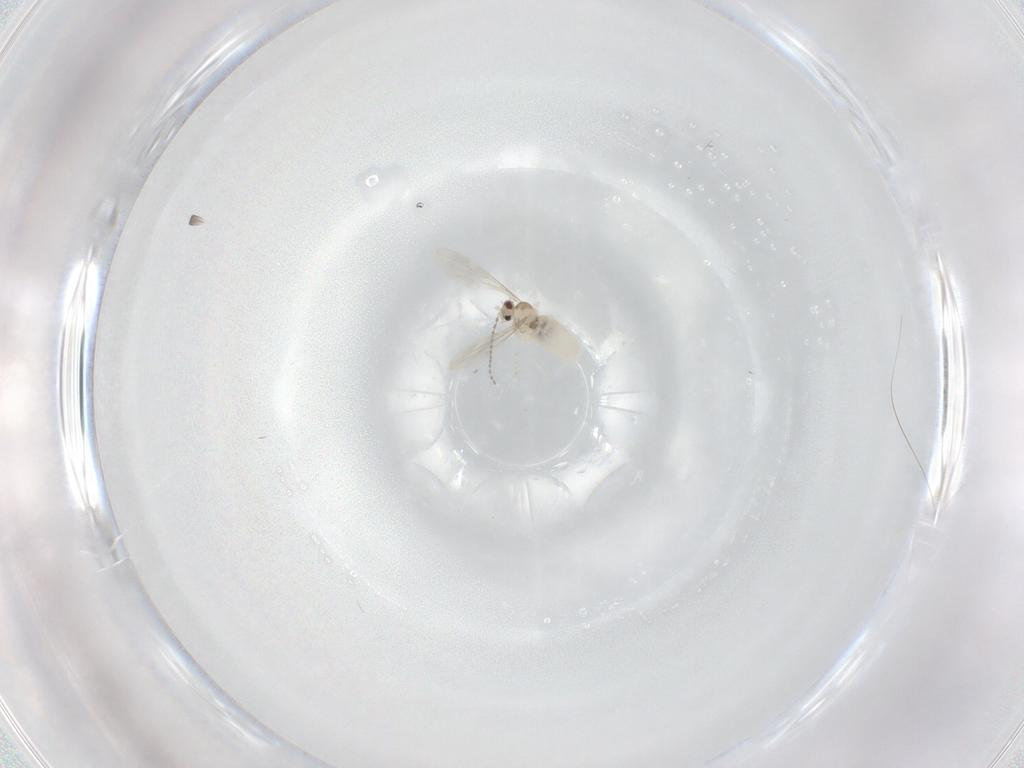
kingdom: Animalia
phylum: Arthropoda
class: Insecta
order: Diptera
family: Cecidomyiidae
